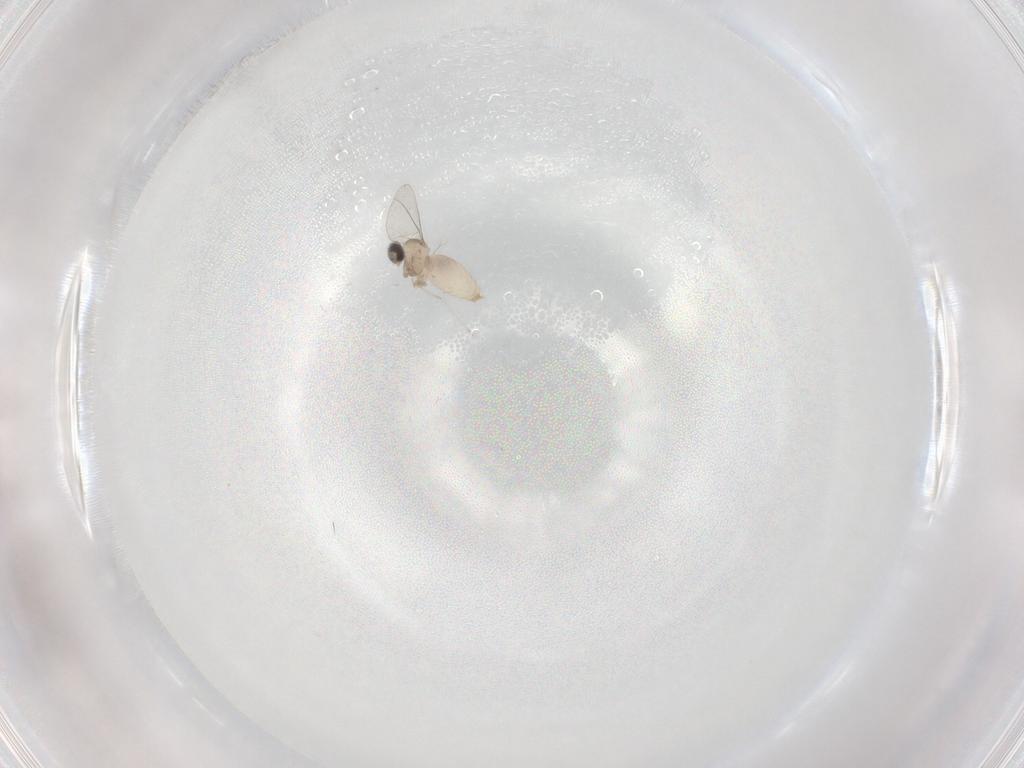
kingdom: Animalia
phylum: Arthropoda
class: Insecta
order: Diptera
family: Cecidomyiidae
